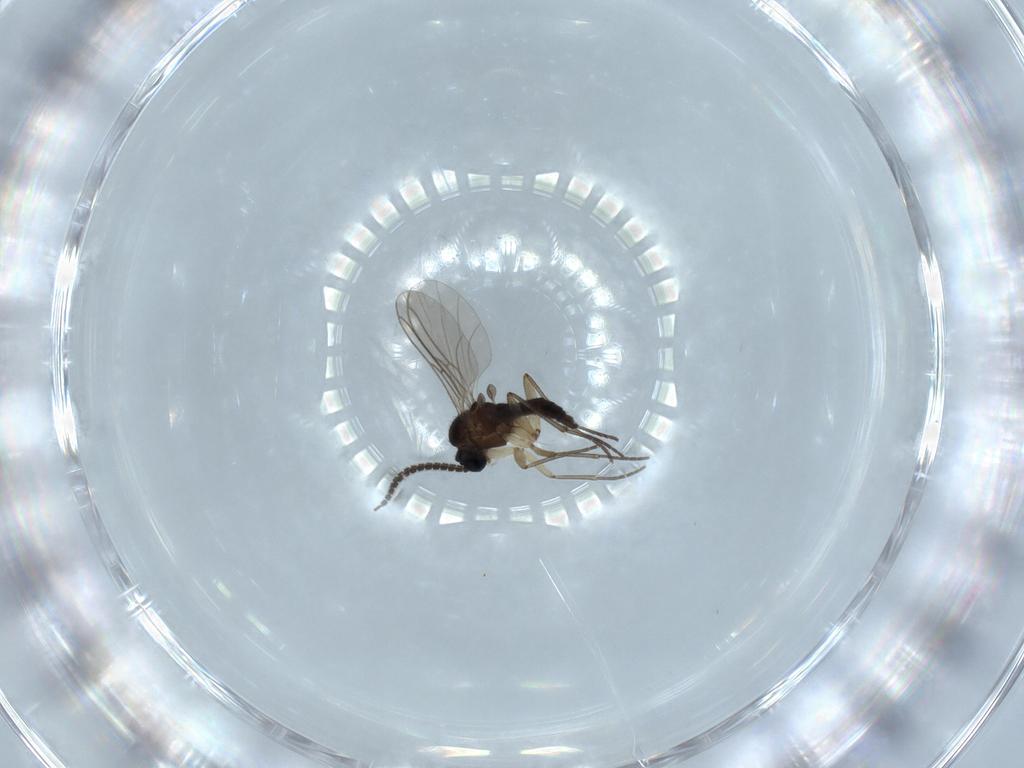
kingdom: Animalia
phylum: Arthropoda
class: Insecta
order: Diptera
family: Sciaridae
